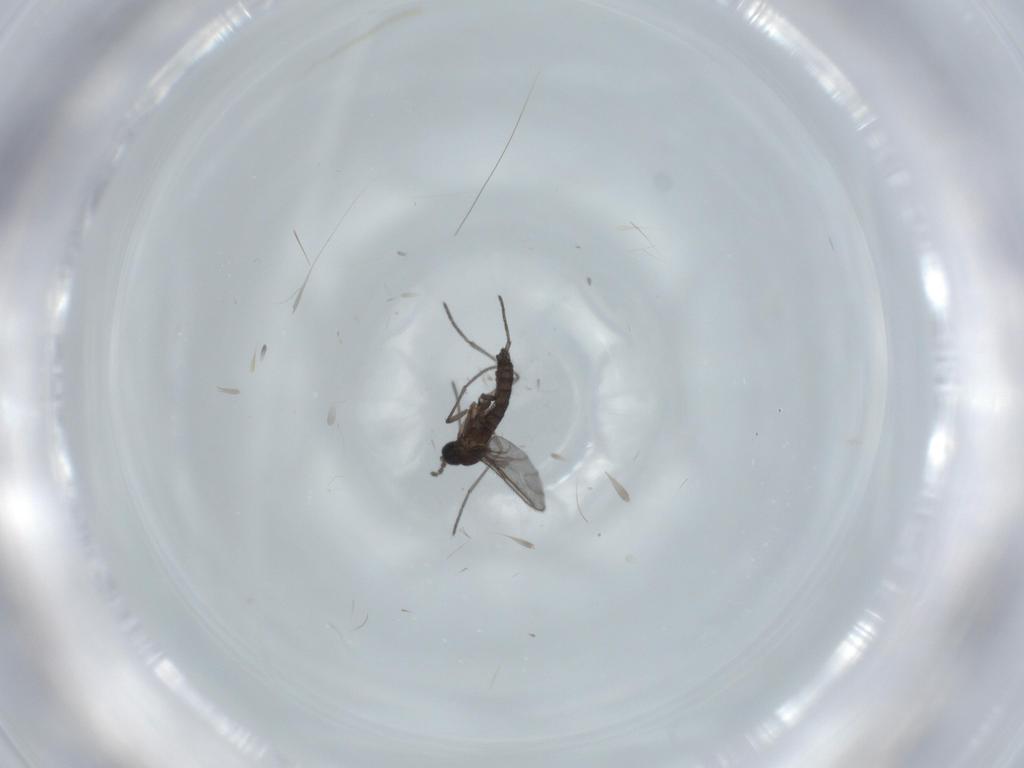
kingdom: Animalia
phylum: Arthropoda
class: Insecta
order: Diptera
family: Sciaridae
